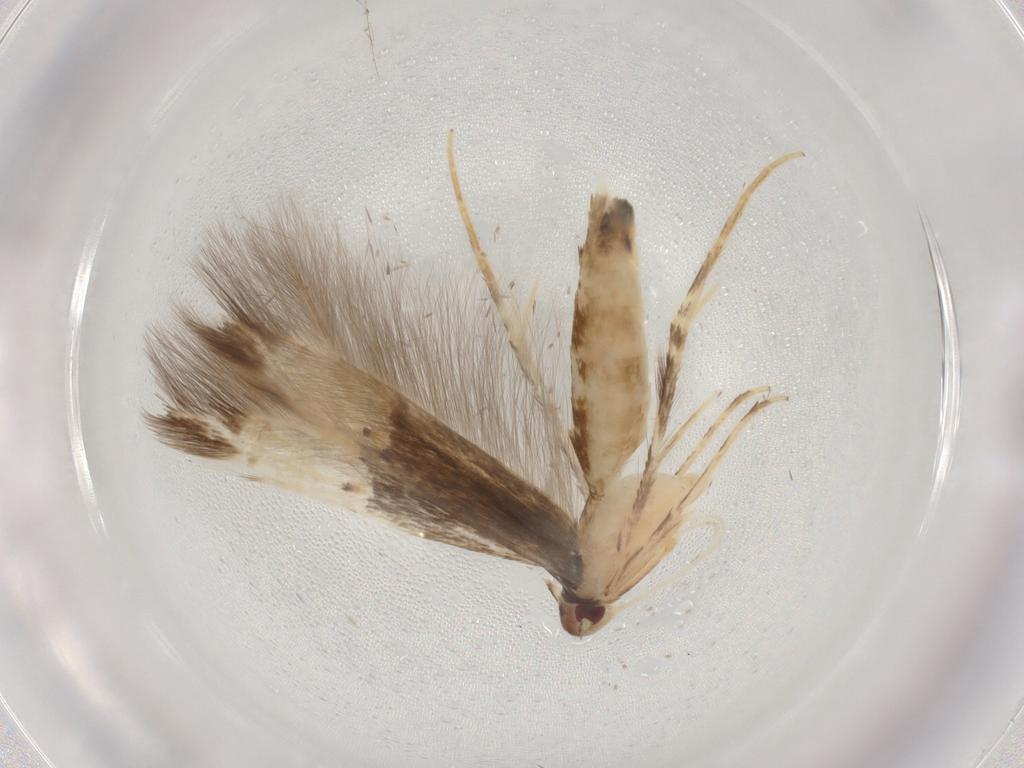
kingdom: Animalia
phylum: Arthropoda
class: Insecta
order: Lepidoptera
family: Cosmopterigidae
